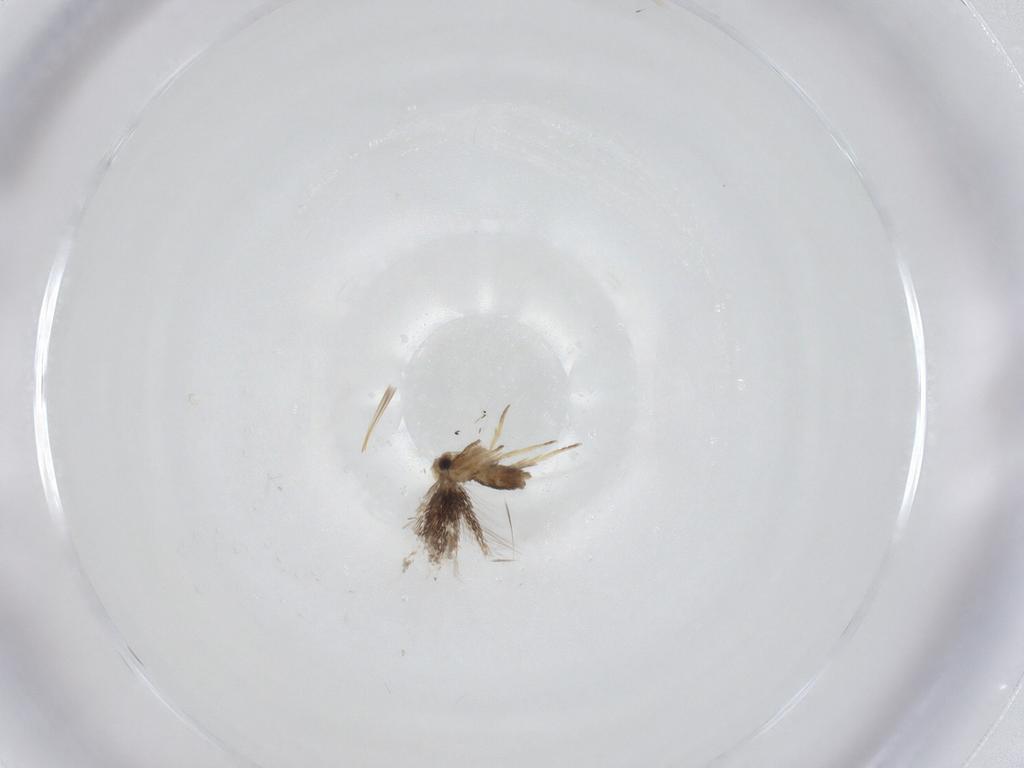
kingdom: Animalia
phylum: Arthropoda
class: Insecta
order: Lepidoptera
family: Nepticulidae
